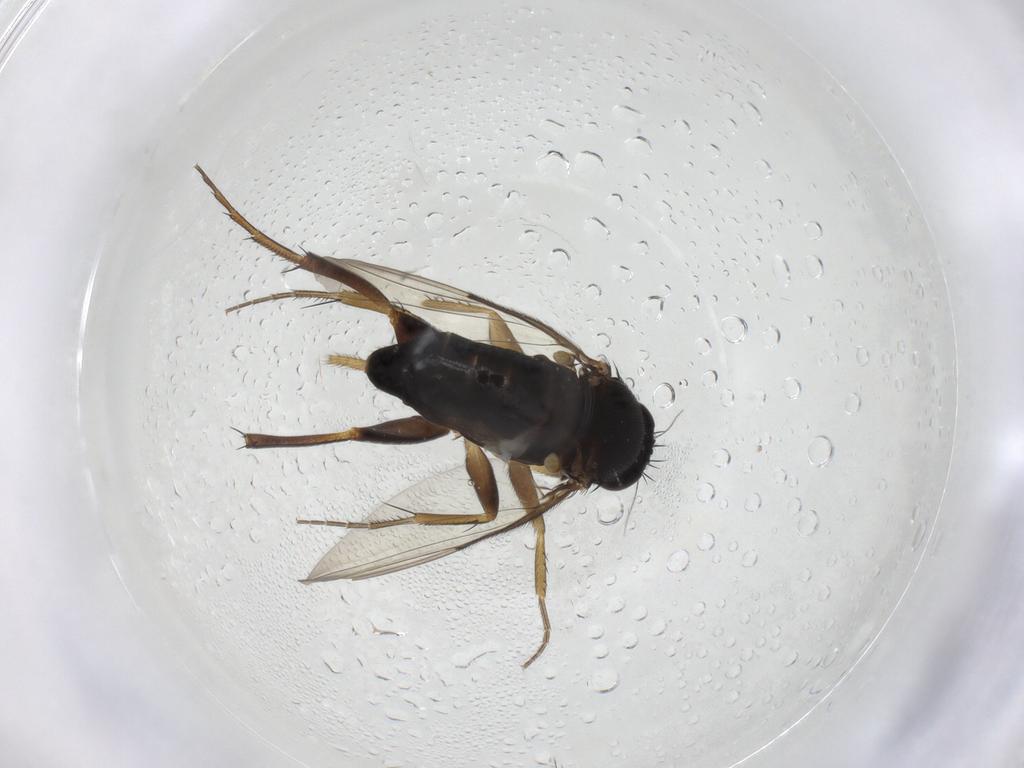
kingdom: Animalia
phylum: Arthropoda
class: Insecta
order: Diptera
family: Phoridae
